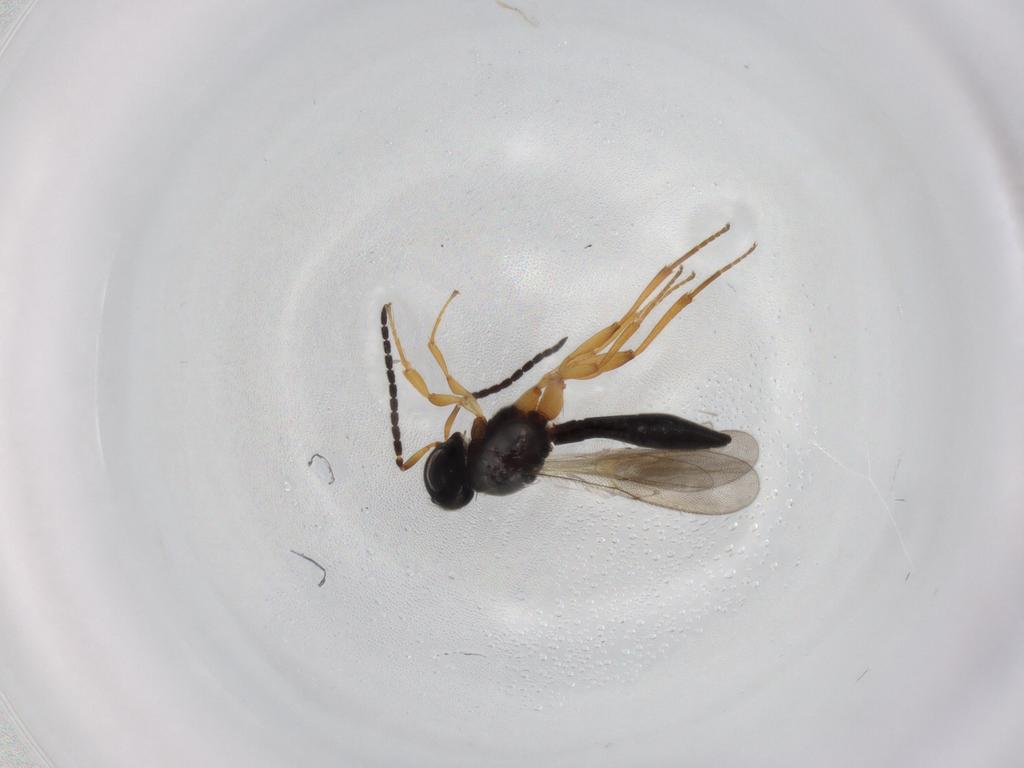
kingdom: Animalia
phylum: Arthropoda
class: Insecta
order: Hymenoptera
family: Scelionidae
